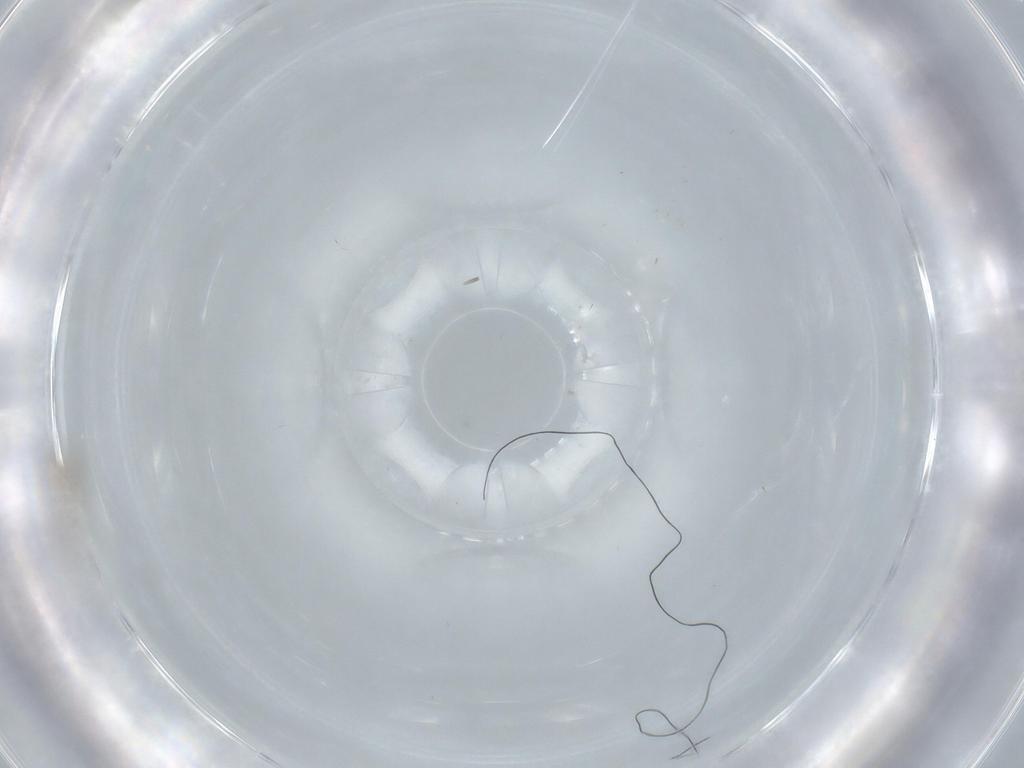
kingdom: Animalia
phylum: Arthropoda
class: Insecta
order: Diptera
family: Cecidomyiidae
